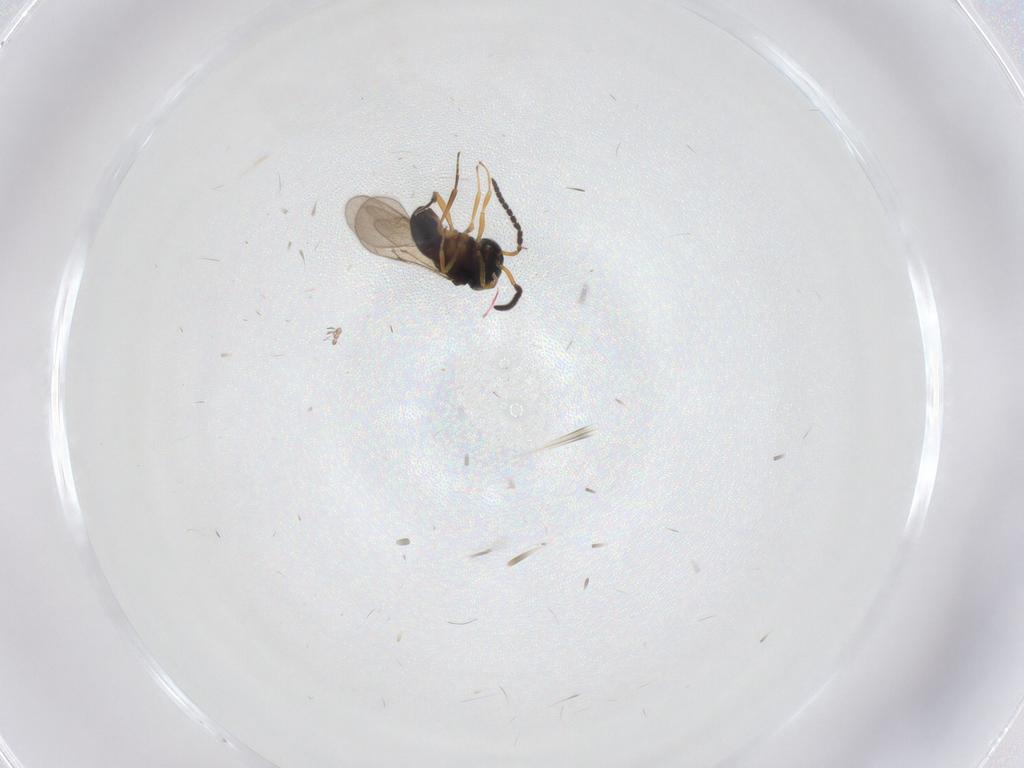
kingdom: Animalia
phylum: Arthropoda
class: Insecta
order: Hymenoptera
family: Scelionidae
